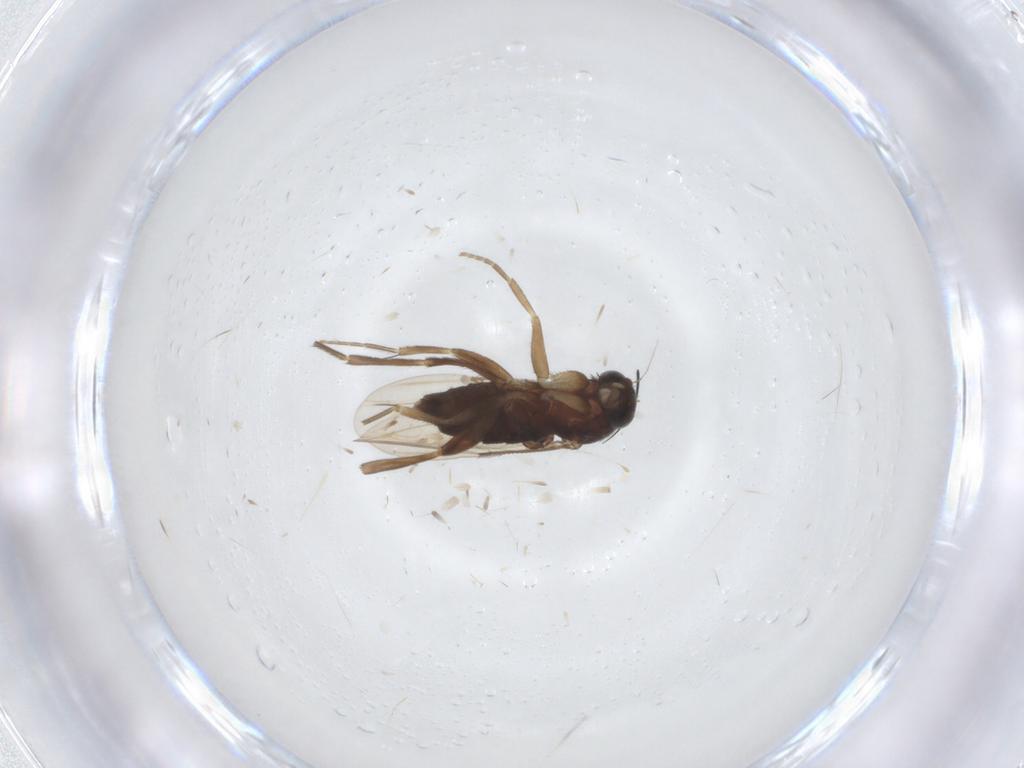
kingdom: Animalia
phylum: Arthropoda
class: Insecta
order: Diptera
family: Phoridae
